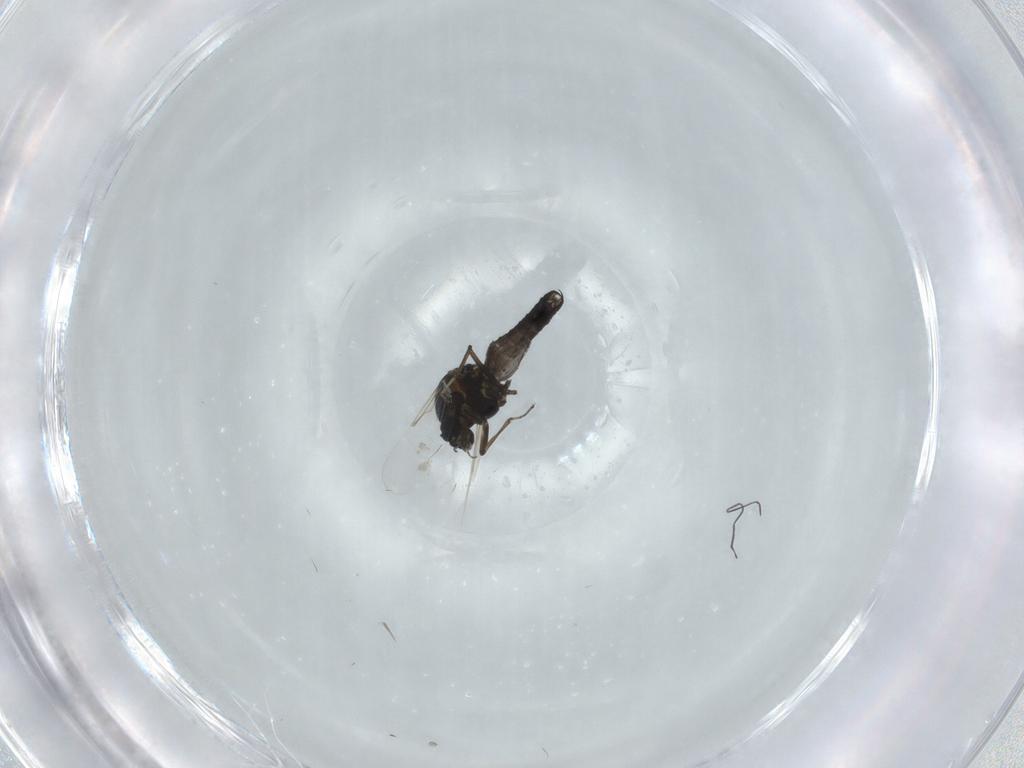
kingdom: Animalia
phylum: Arthropoda
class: Insecta
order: Diptera
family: Ceratopogonidae
